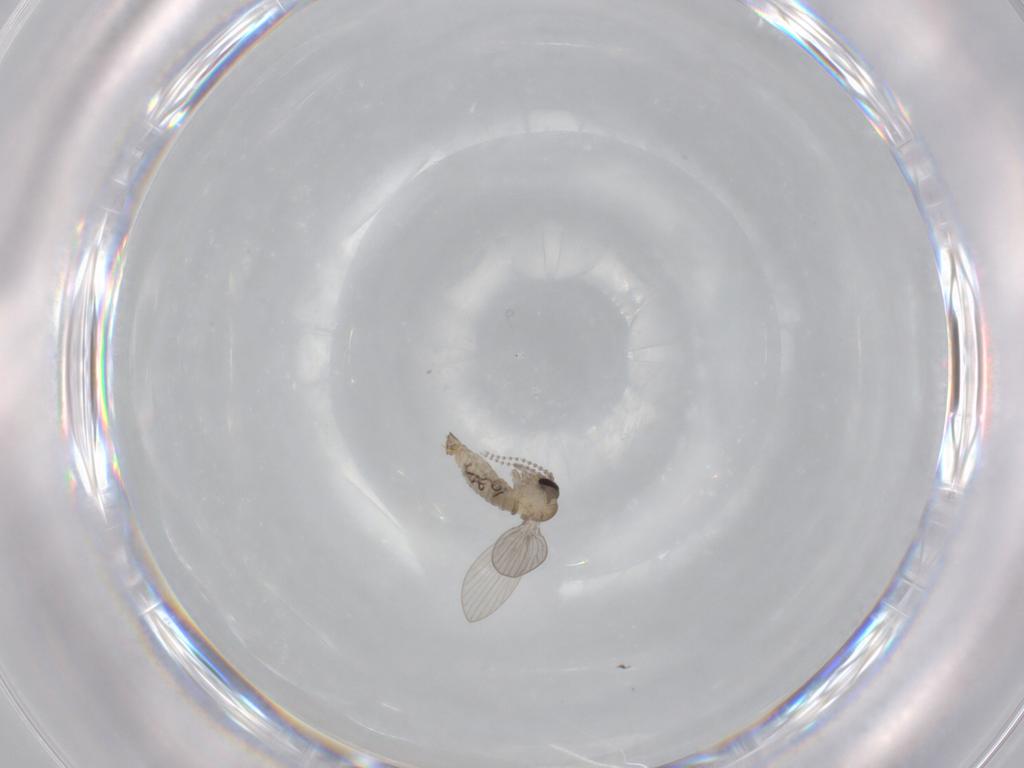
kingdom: Animalia
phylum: Arthropoda
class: Insecta
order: Diptera
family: Psychodidae
